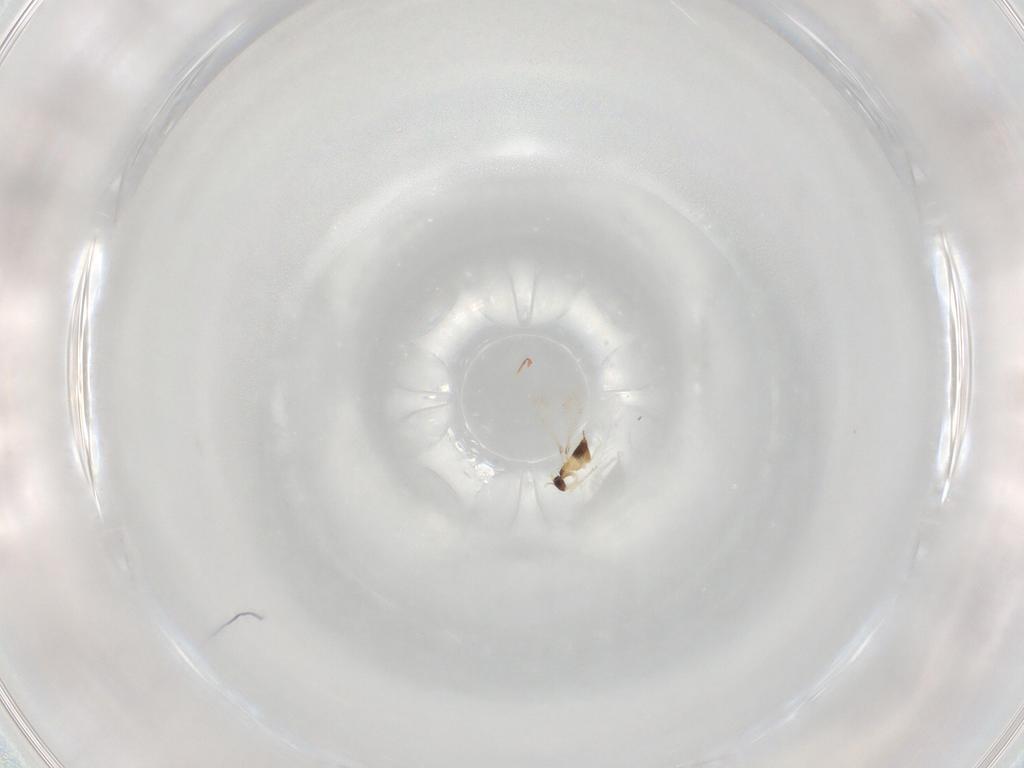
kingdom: Animalia
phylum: Arthropoda
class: Insecta
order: Hymenoptera
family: Mymaridae
